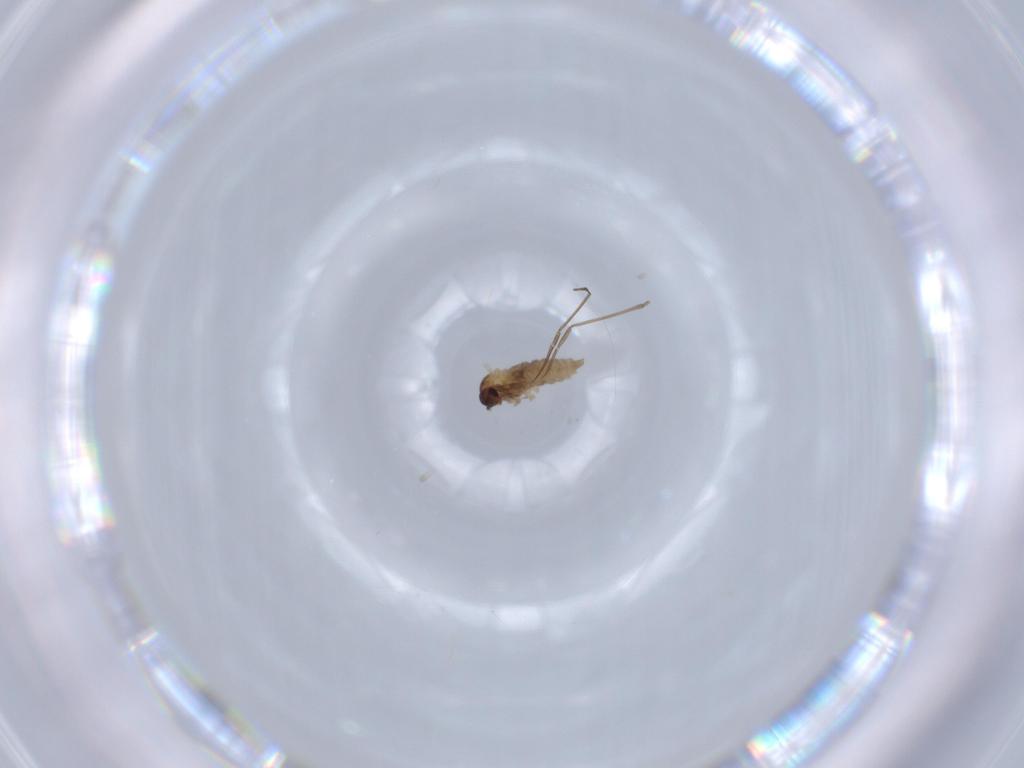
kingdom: Animalia
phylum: Arthropoda
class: Insecta
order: Diptera
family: Cecidomyiidae
